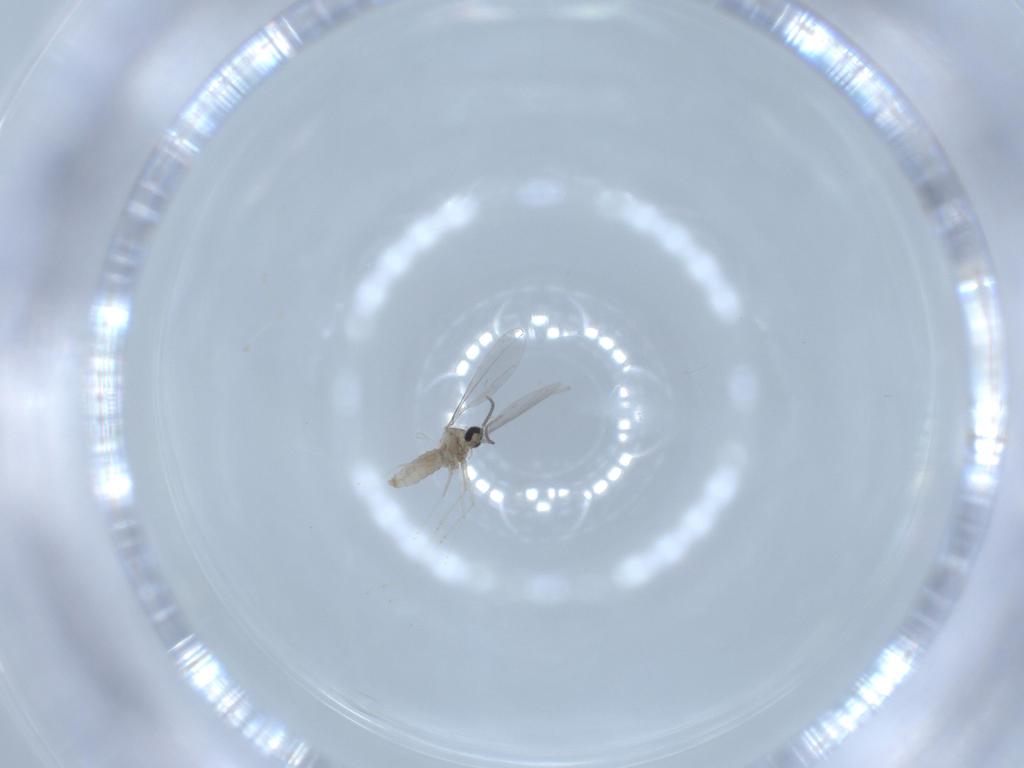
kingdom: Animalia
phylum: Arthropoda
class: Insecta
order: Diptera
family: Cecidomyiidae
